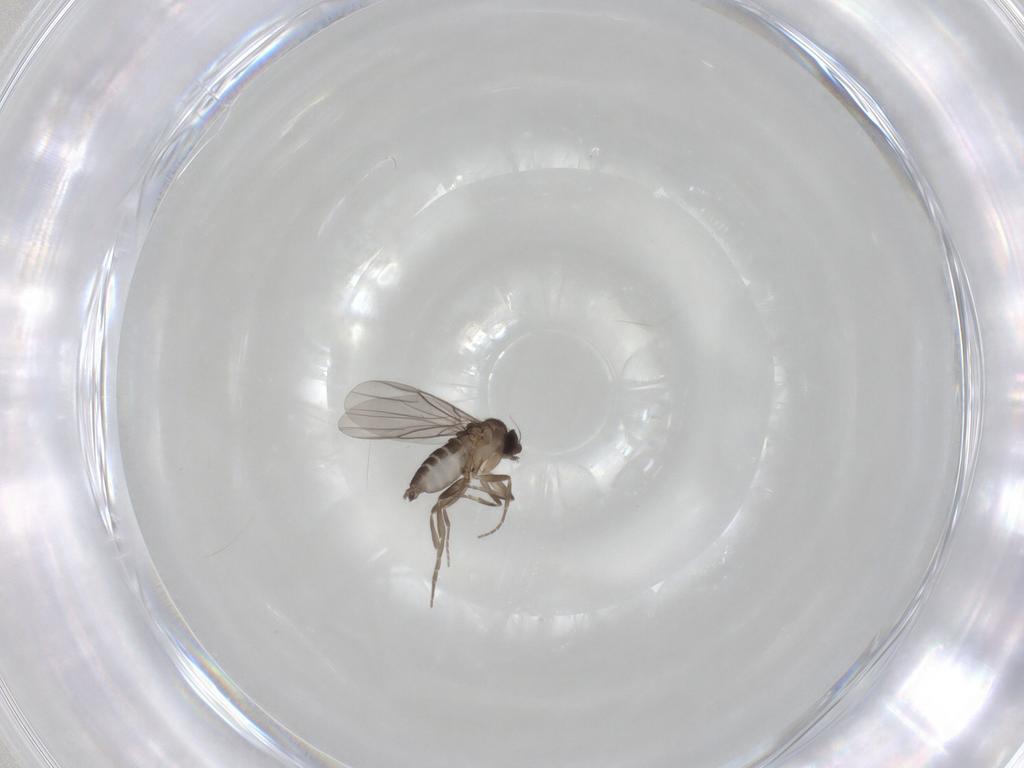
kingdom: Animalia
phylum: Arthropoda
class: Insecta
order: Diptera
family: Phoridae
